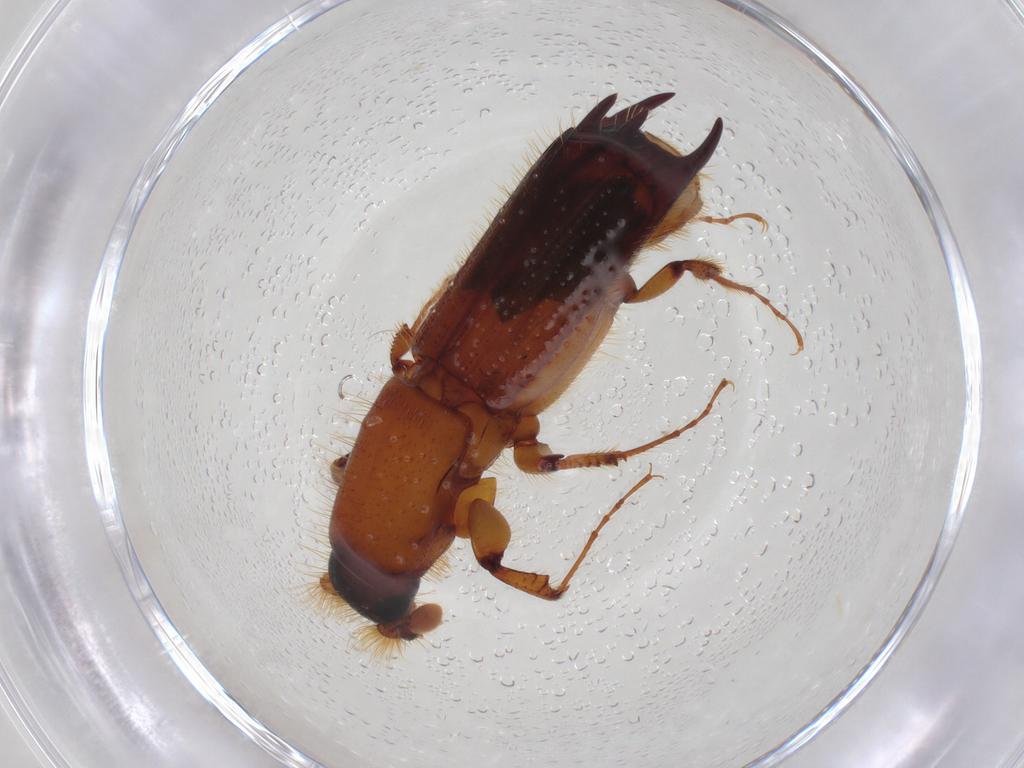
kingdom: Animalia
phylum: Arthropoda
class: Insecta
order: Coleoptera
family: Curculionidae
